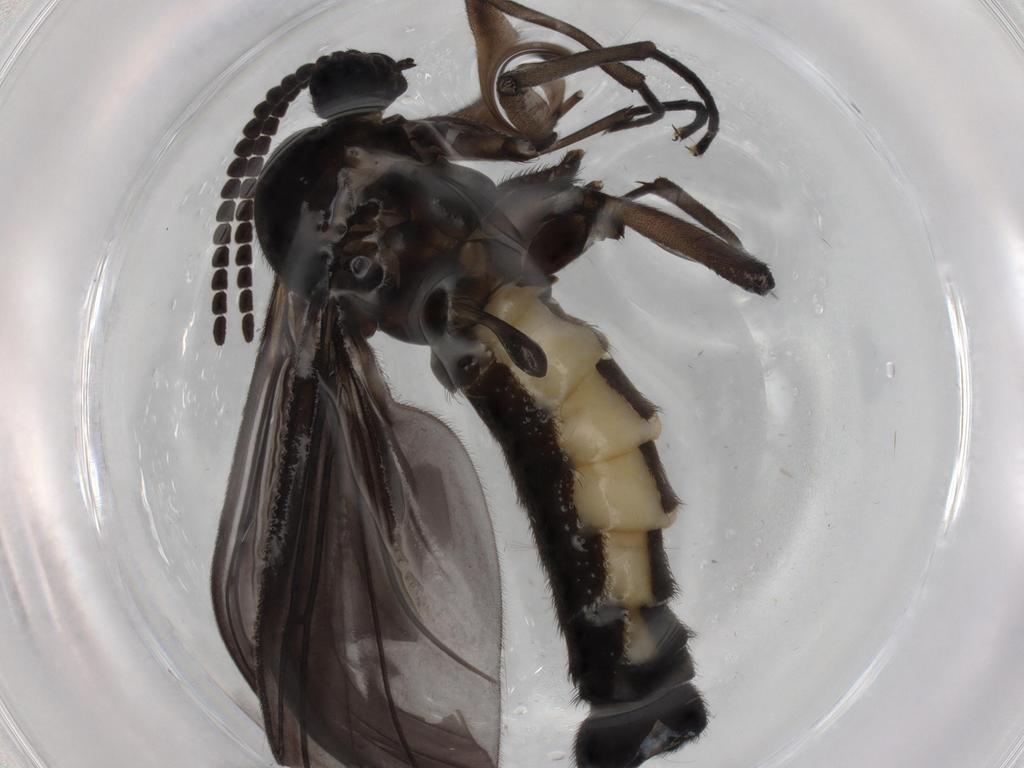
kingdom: Animalia
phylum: Arthropoda
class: Insecta
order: Diptera
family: Sciaridae
